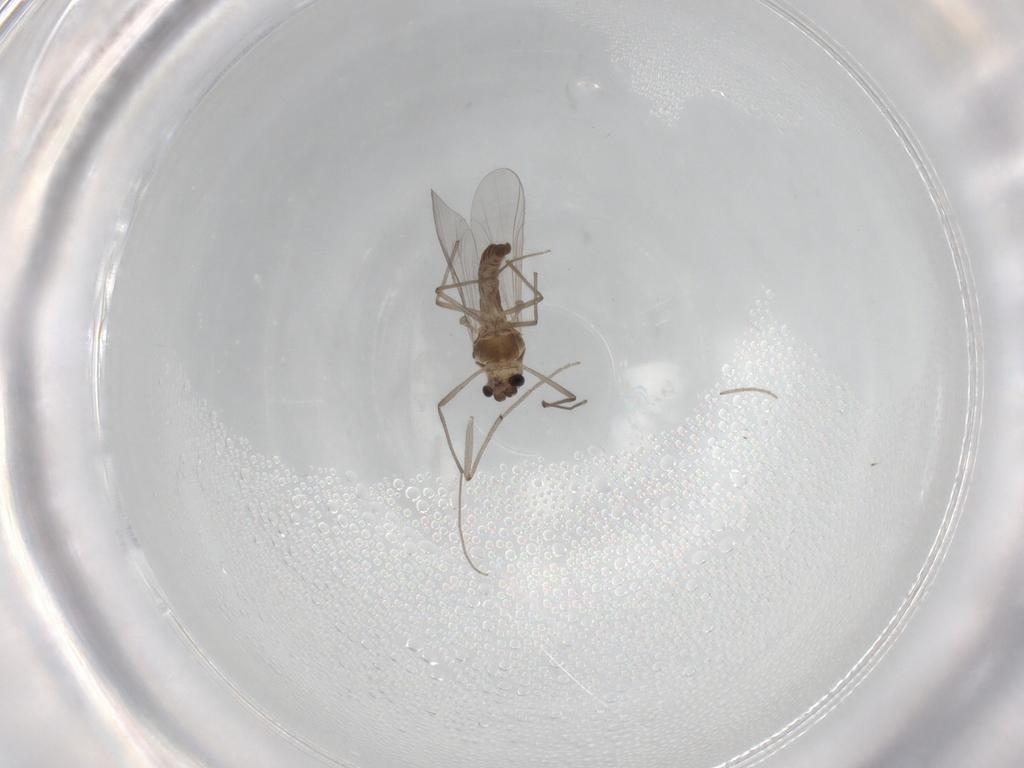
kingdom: Animalia
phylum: Arthropoda
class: Insecta
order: Diptera
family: Chironomidae
